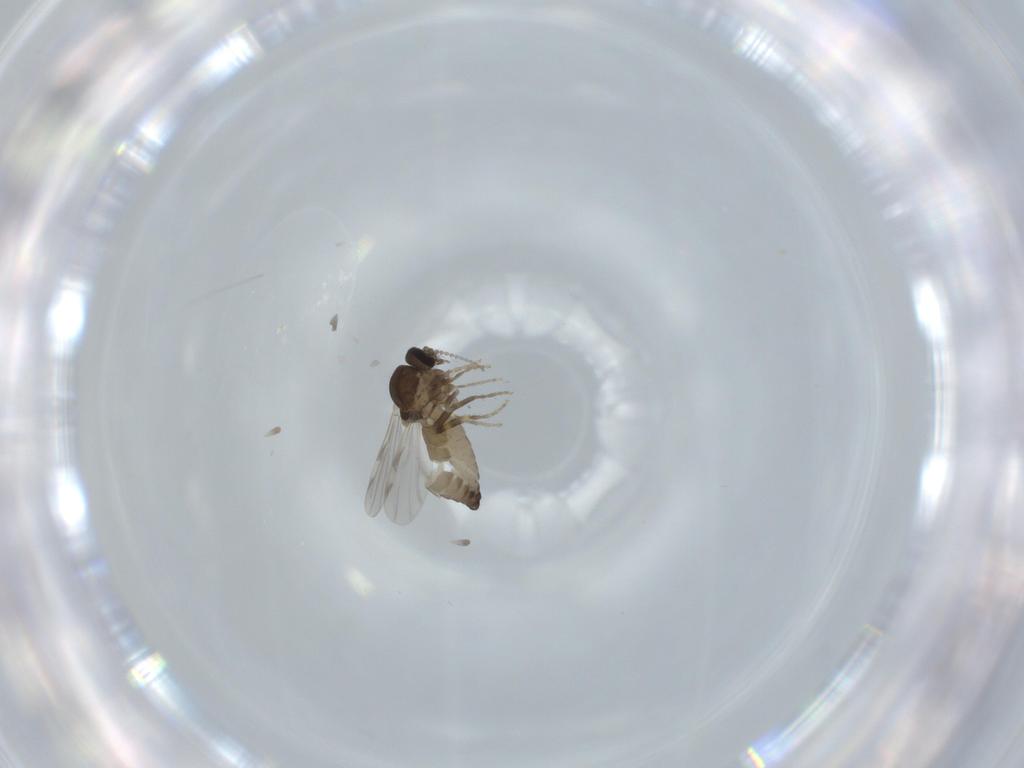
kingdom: Animalia
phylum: Arthropoda
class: Insecta
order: Diptera
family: Ceratopogonidae
